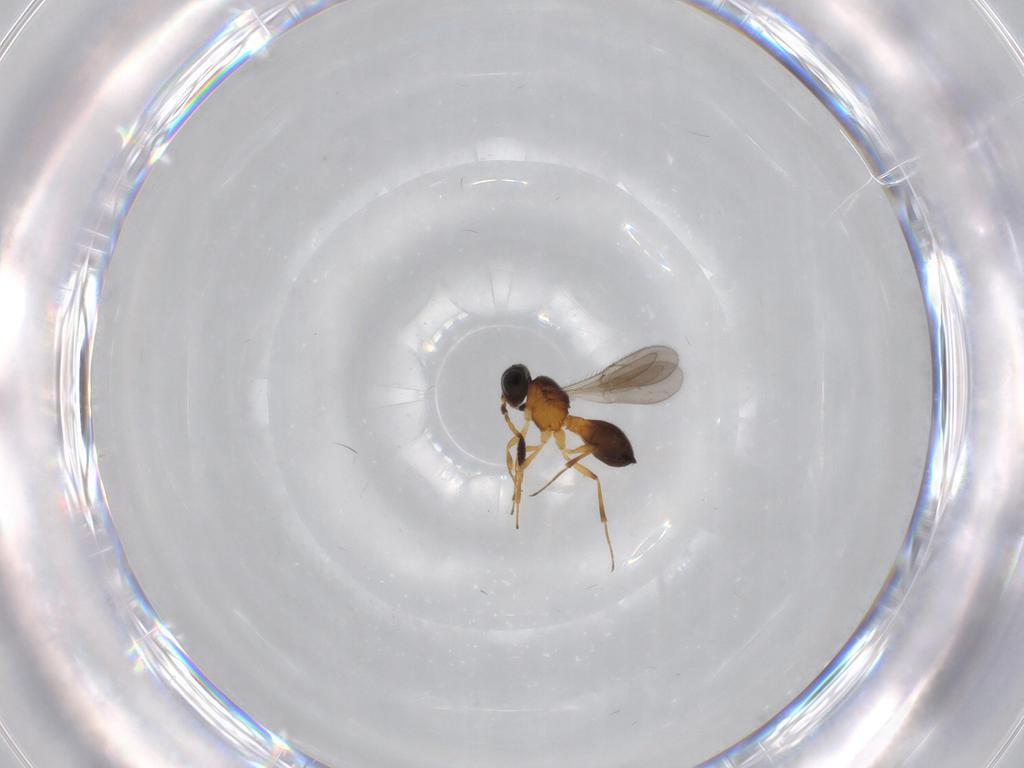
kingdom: Animalia
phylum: Arthropoda
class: Insecta
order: Hymenoptera
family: Scelionidae
